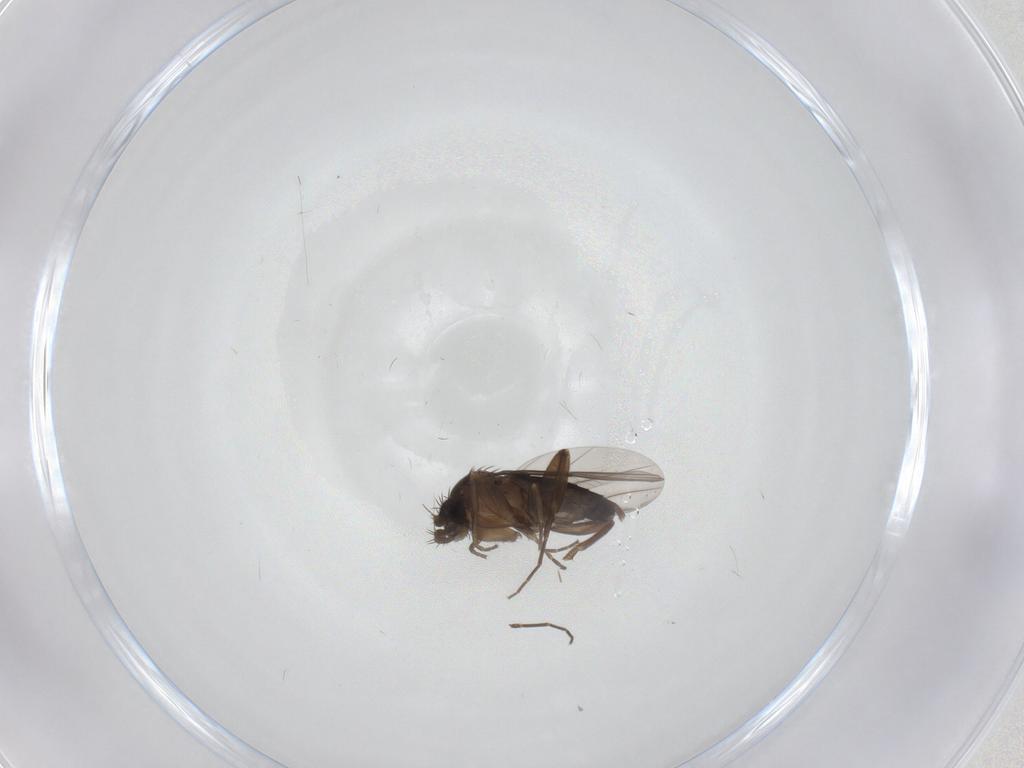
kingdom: Animalia
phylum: Arthropoda
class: Insecta
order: Diptera
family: Phoridae
